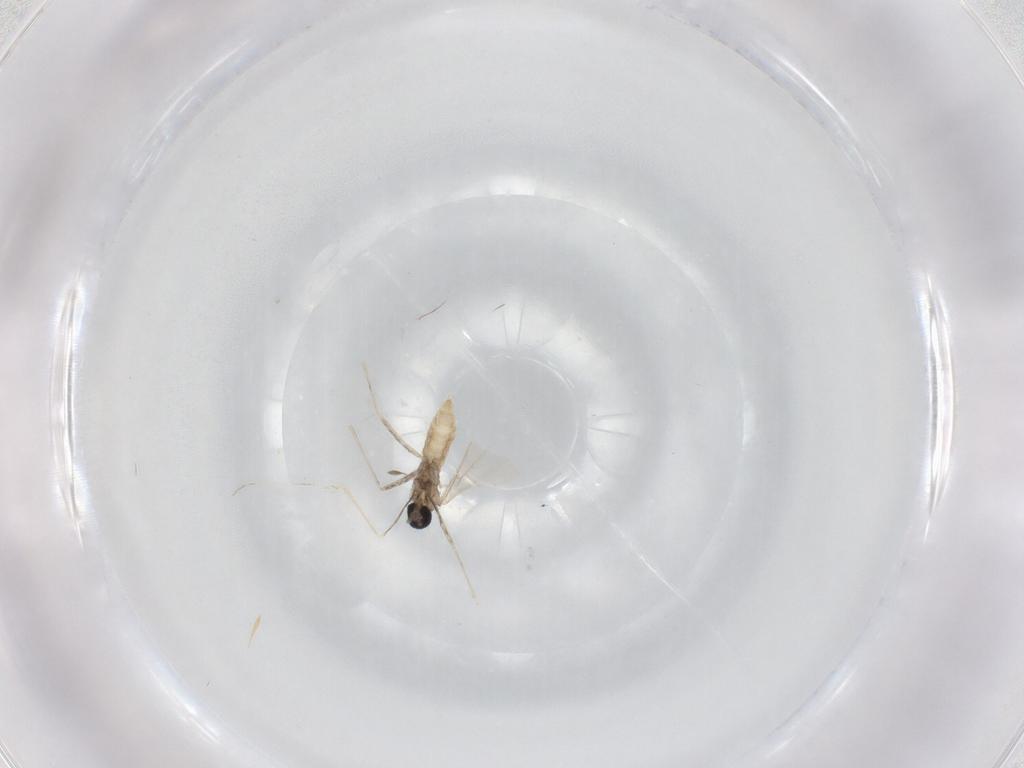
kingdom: Animalia
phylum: Arthropoda
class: Insecta
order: Diptera
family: Cecidomyiidae
